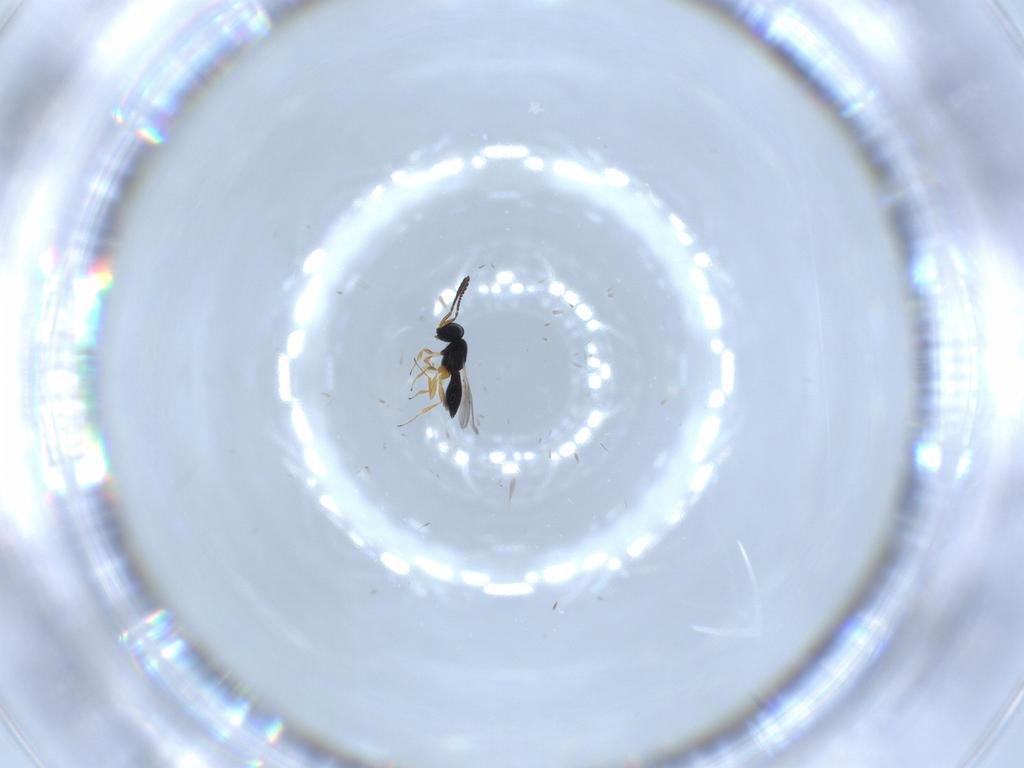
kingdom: Animalia
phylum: Arthropoda
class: Insecta
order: Hymenoptera
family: Scelionidae
